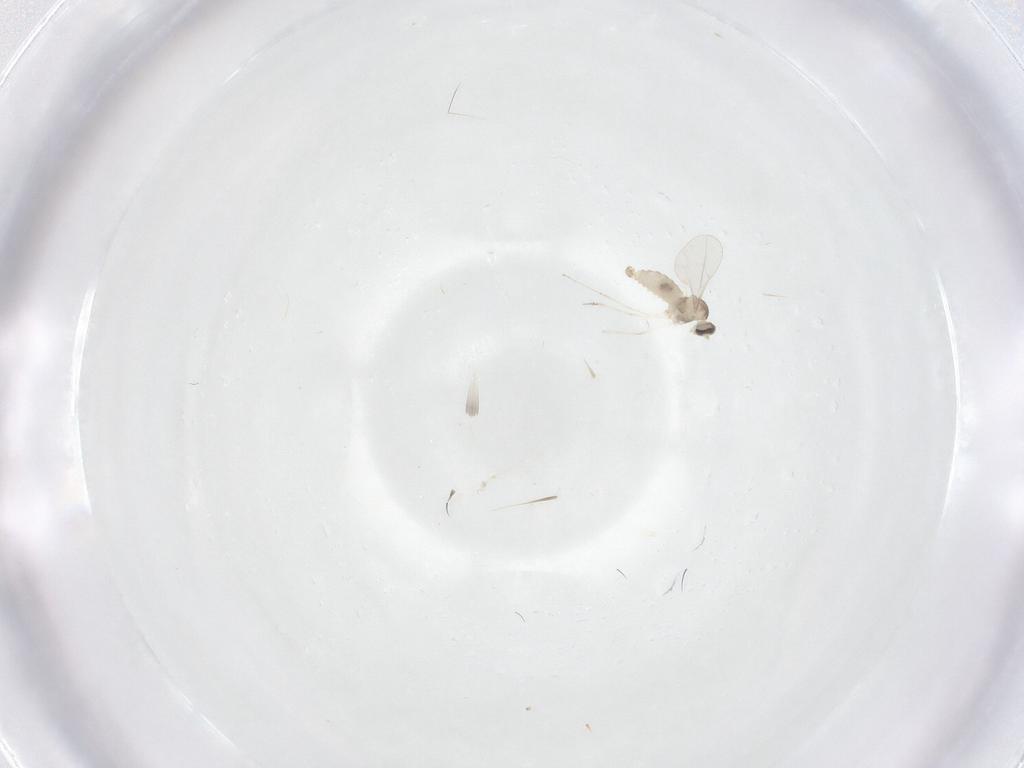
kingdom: Animalia
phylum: Arthropoda
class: Insecta
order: Diptera
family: Cecidomyiidae
